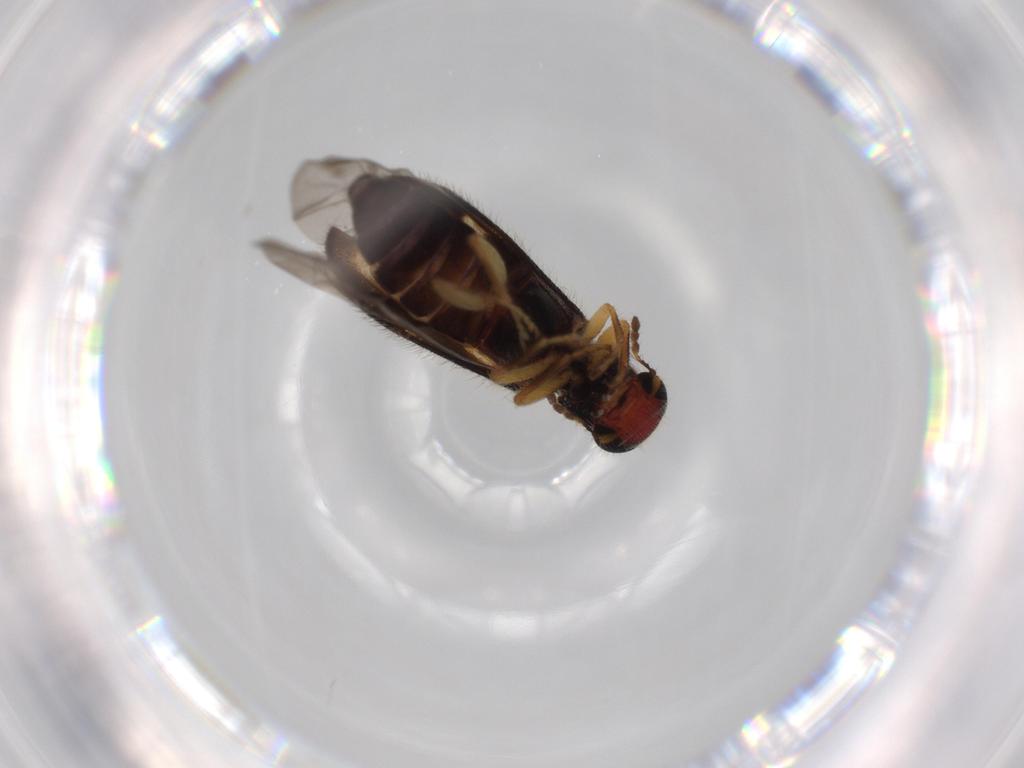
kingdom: Animalia
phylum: Arthropoda
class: Insecta
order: Coleoptera
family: Cleridae
